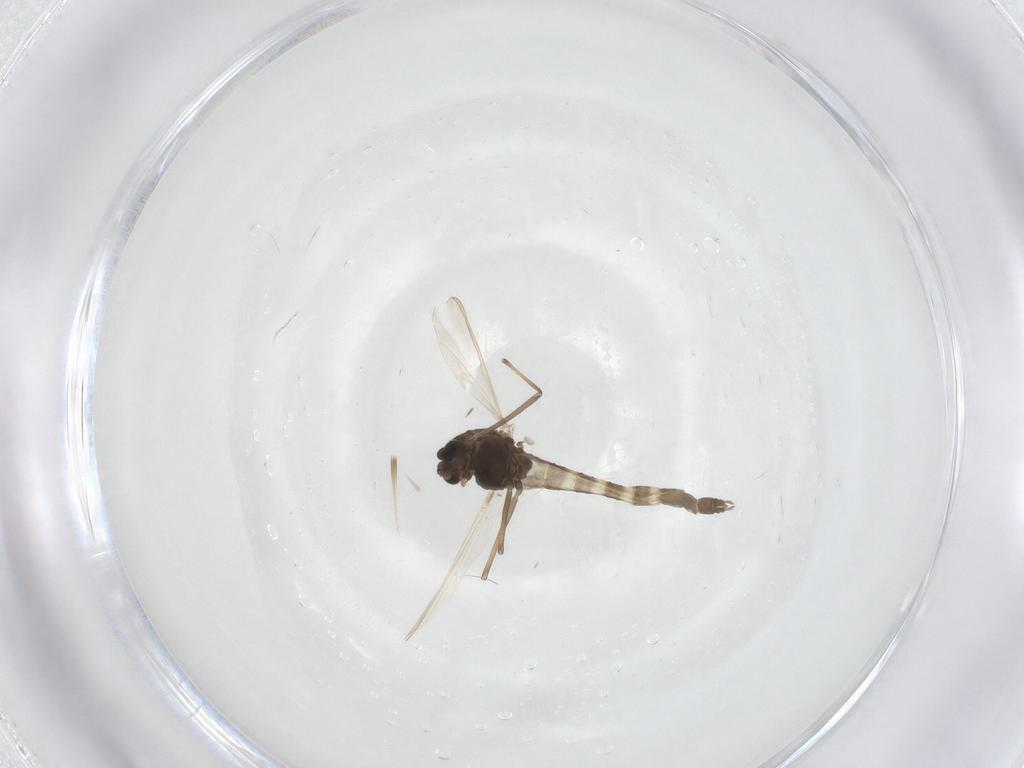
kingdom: Animalia
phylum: Arthropoda
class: Insecta
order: Diptera
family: Chironomidae
